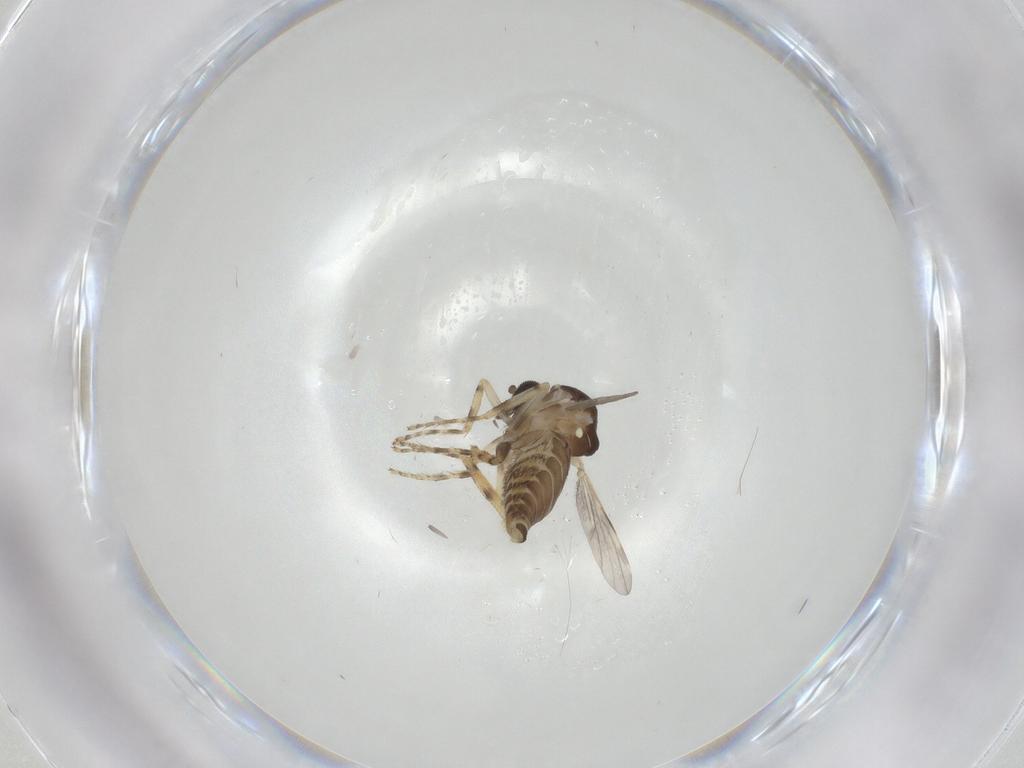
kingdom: Animalia
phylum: Arthropoda
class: Insecta
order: Diptera
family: Ceratopogonidae
